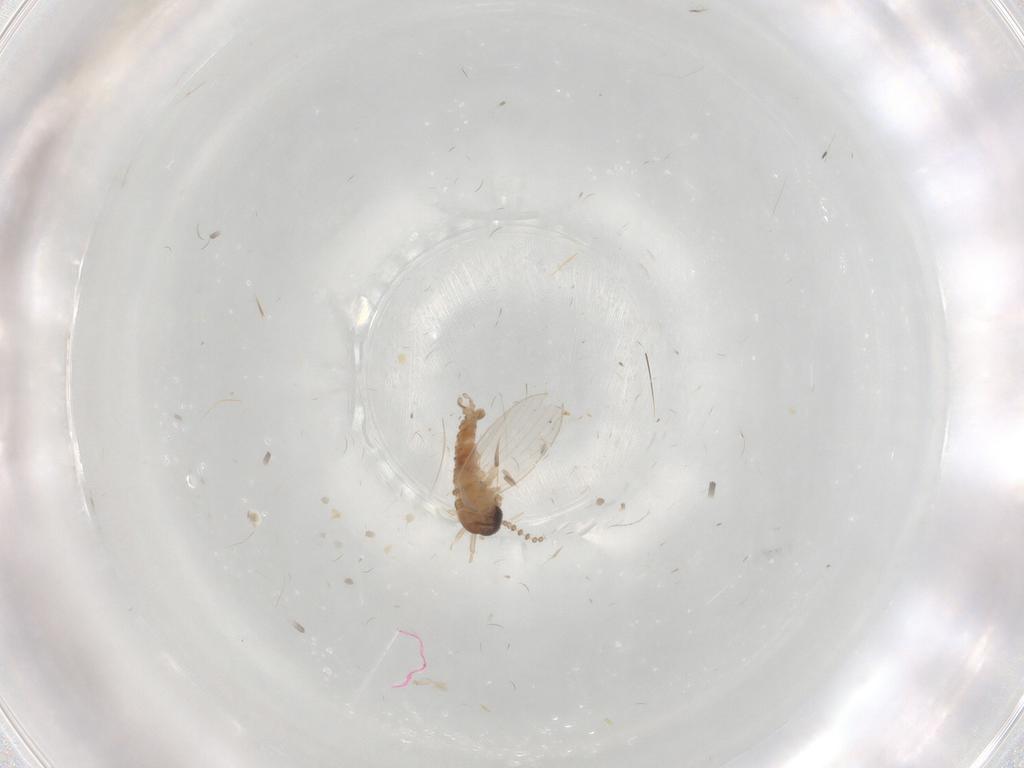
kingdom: Animalia
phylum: Arthropoda
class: Insecta
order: Diptera
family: Psychodidae
